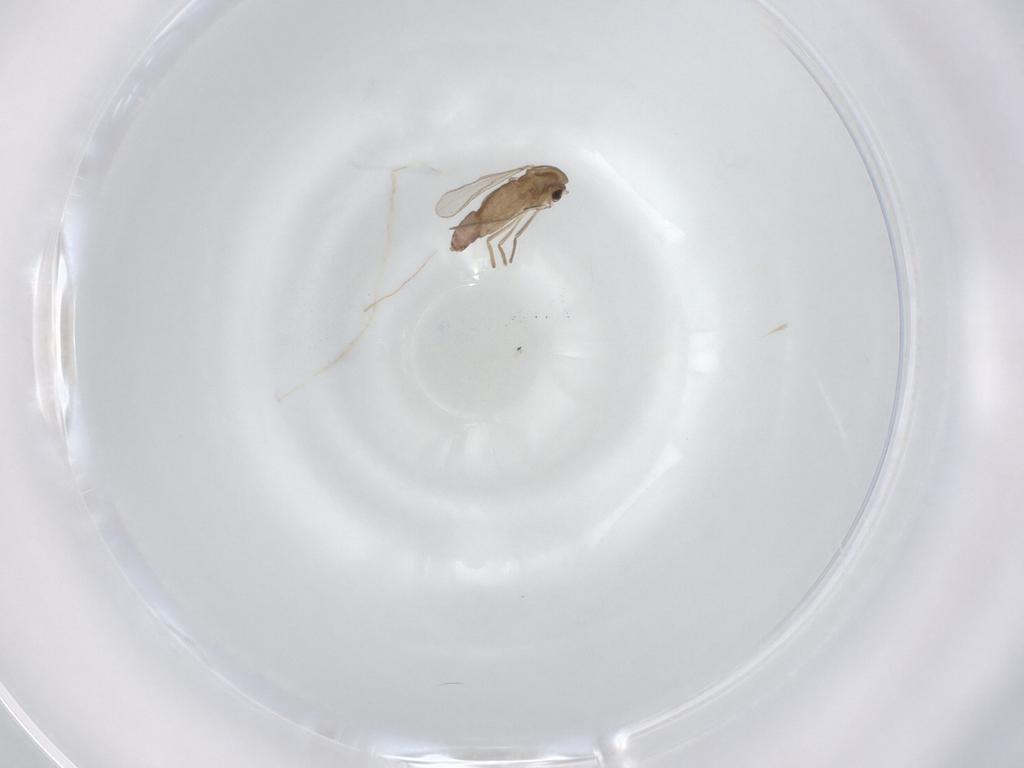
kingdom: Animalia
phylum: Arthropoda
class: Insecta
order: Diptera
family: Chironomidae
